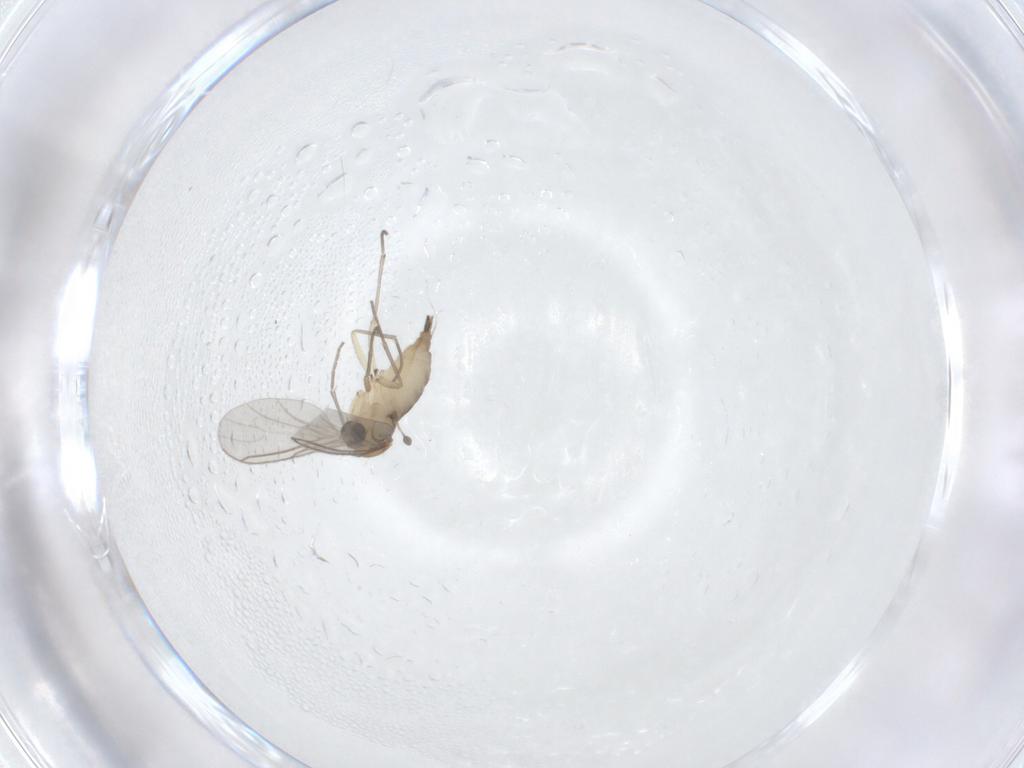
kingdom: Animalia
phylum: Arthropoda
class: Insecta
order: Diptera
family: Sciaridae
